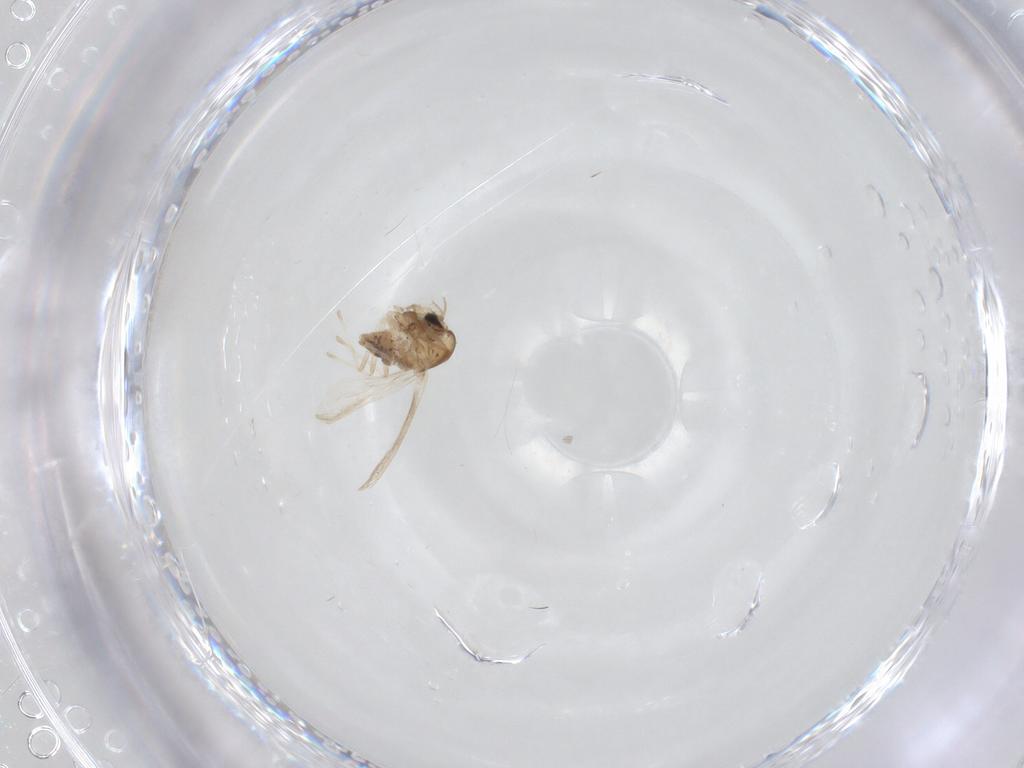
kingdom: Animalia
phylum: Arthropoda
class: Insecta
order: Diptera
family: Chironomidae
